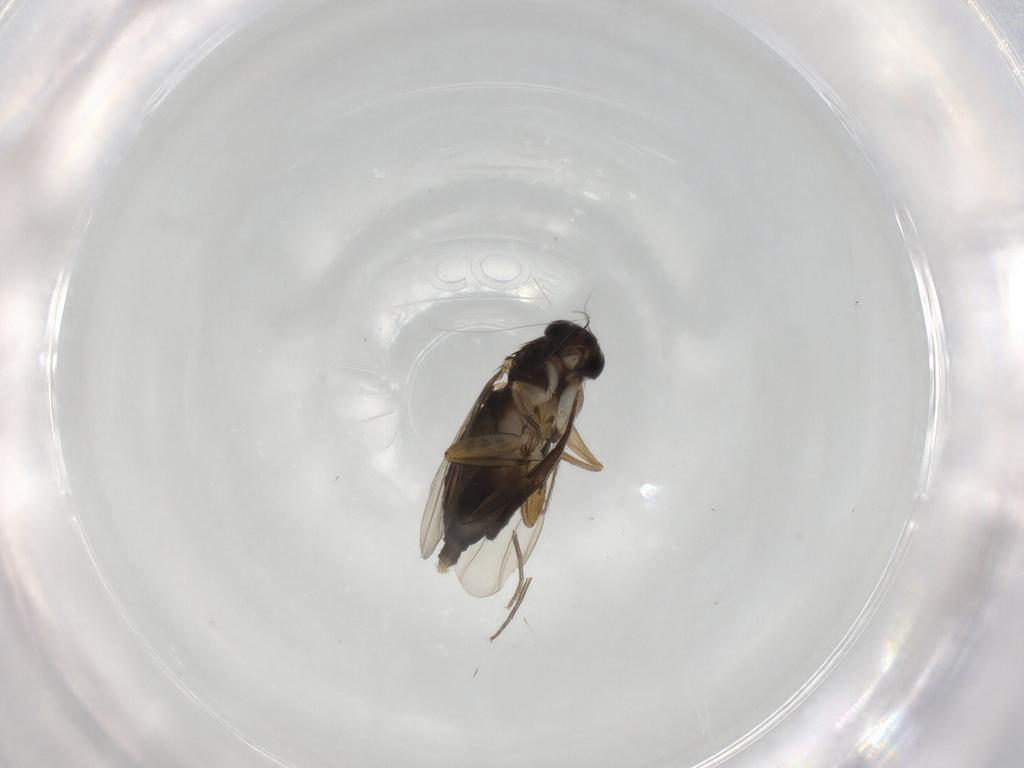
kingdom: Animalia
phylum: Arthropoda
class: Insecta
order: Diptera
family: Phoridae
